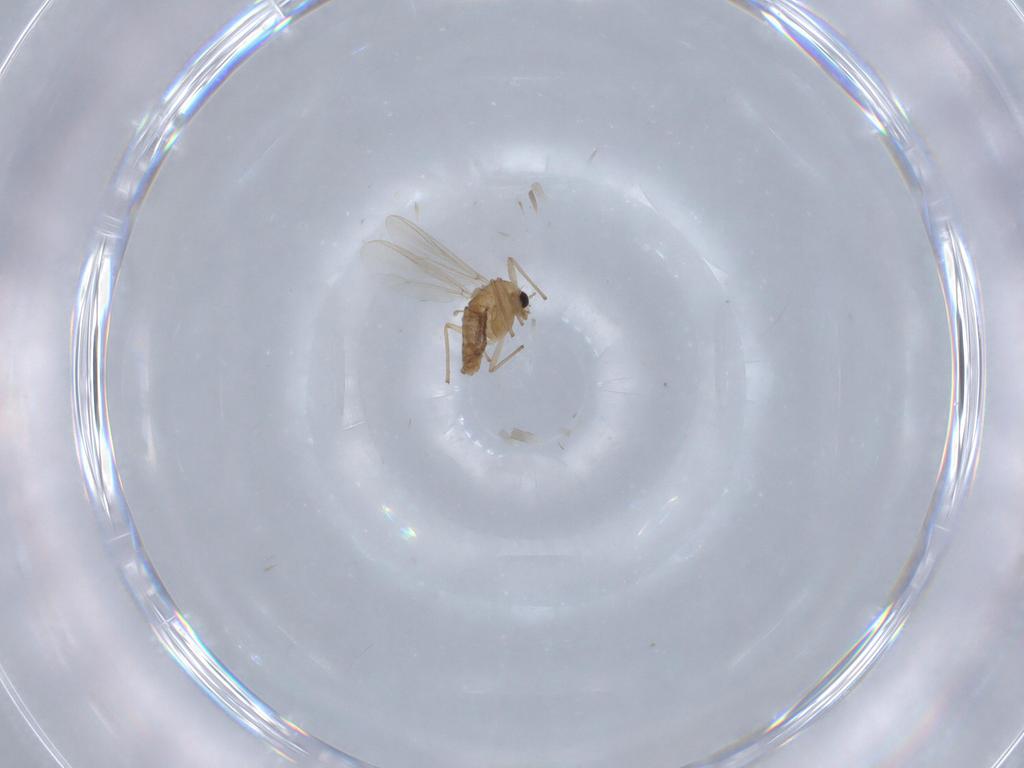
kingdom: Animalia
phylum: Arthropoda
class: Insecta
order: Diptera
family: Chironomidae
